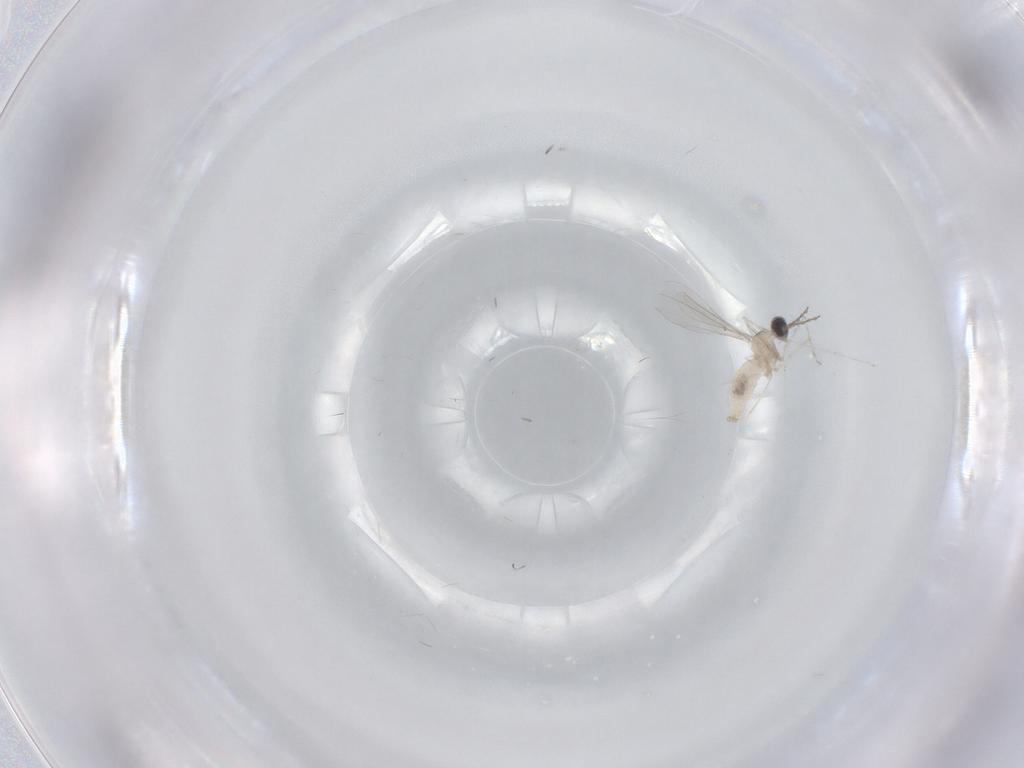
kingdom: Animalia
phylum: Arthropoda
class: Insecta
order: Diptera
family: Cecidomyiidae
